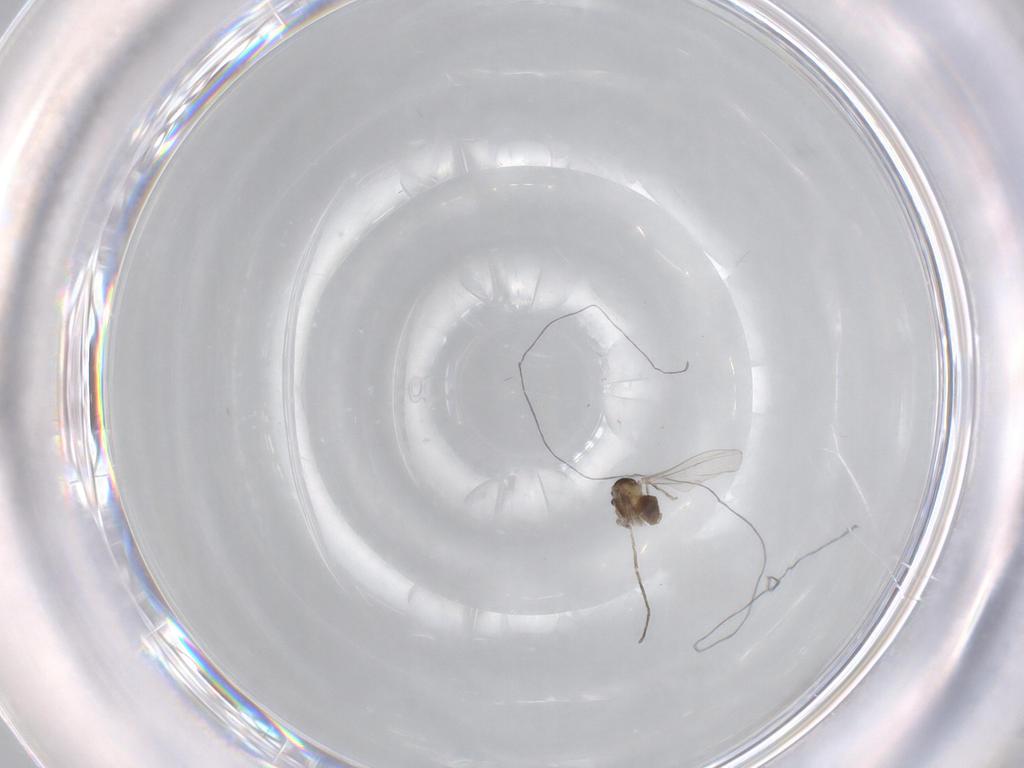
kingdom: Animalia
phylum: Arthropoda
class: Insecta
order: Diptera
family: Cecidomyiidae
